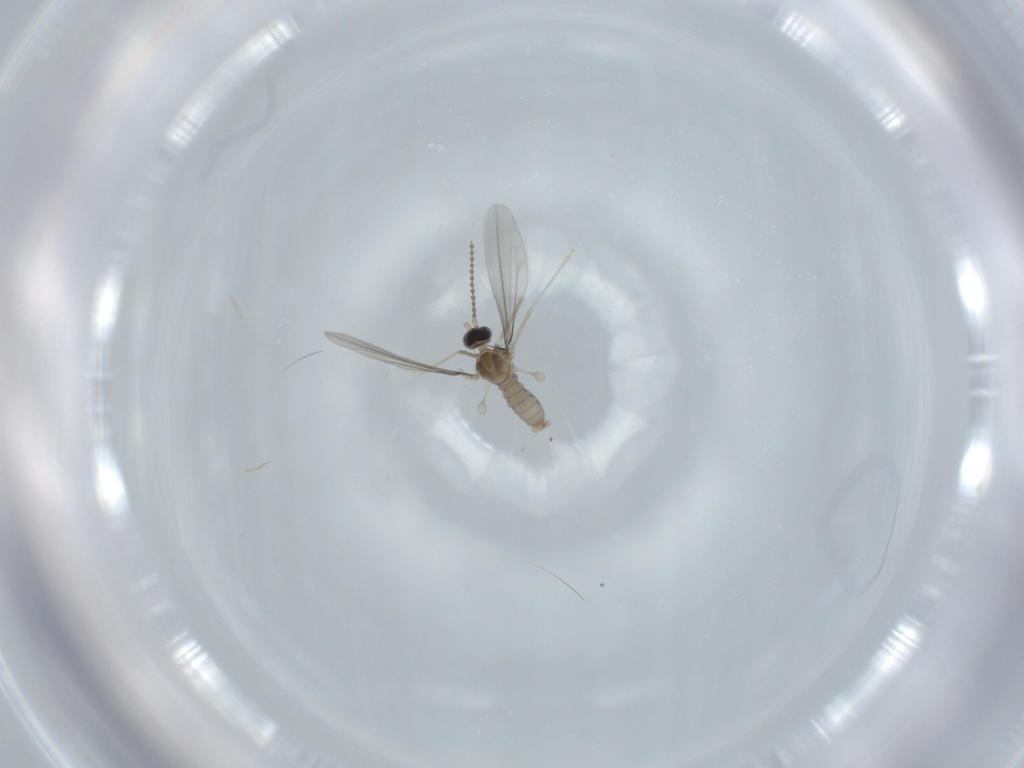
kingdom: Animalia
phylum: Arthropoda
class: Insecta
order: Diptera
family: Cecidomyiidae
